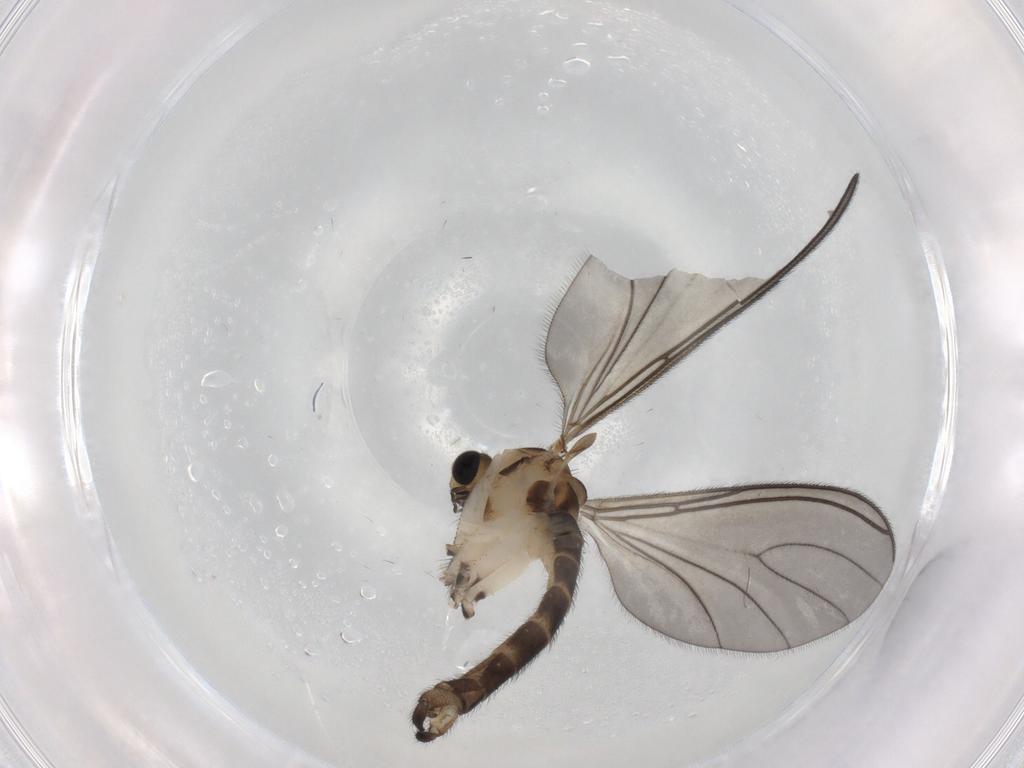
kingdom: Animalia
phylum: Arthropoda
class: Insecta
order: Diptera
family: Sciaridae
